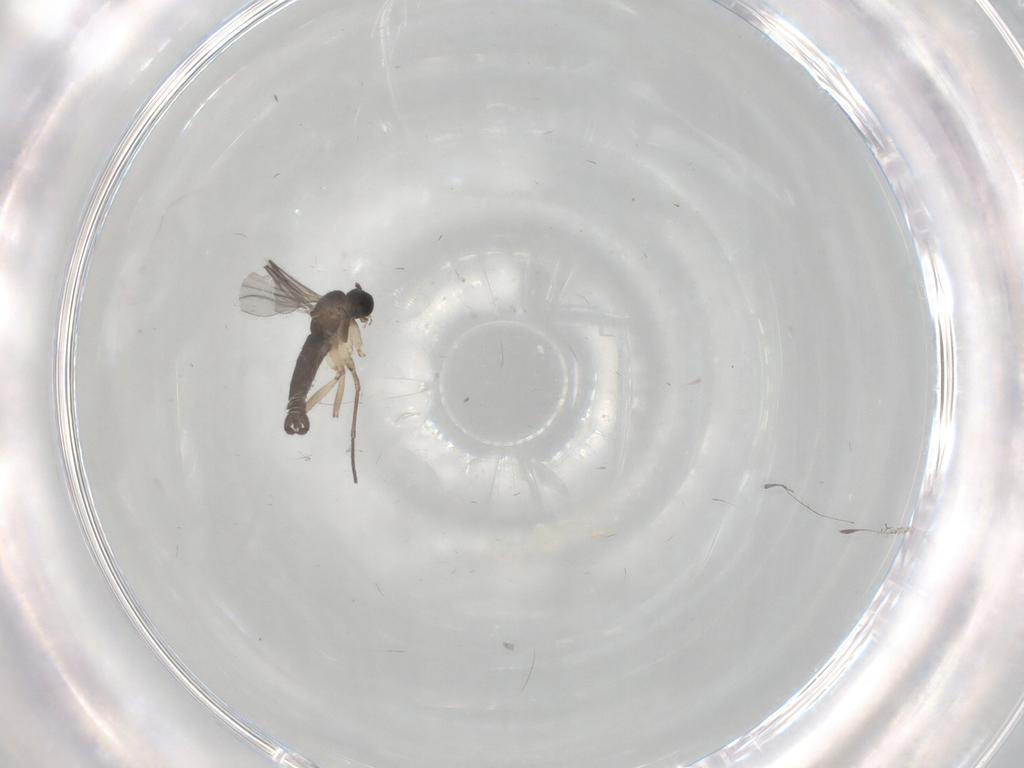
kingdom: Animalia
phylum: Arthropoda
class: Insecta
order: Diptera
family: Sciaridae
